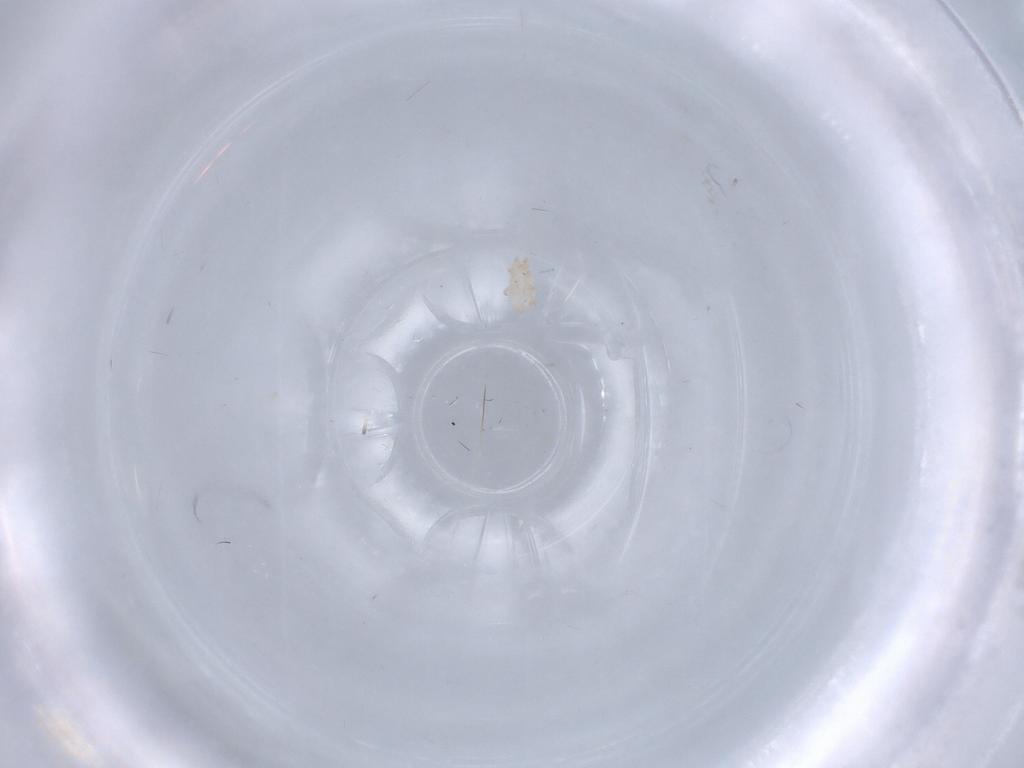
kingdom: Animalia
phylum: Arthropoda
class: Arachnida
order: Mesostigmata
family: Digamasellidae
